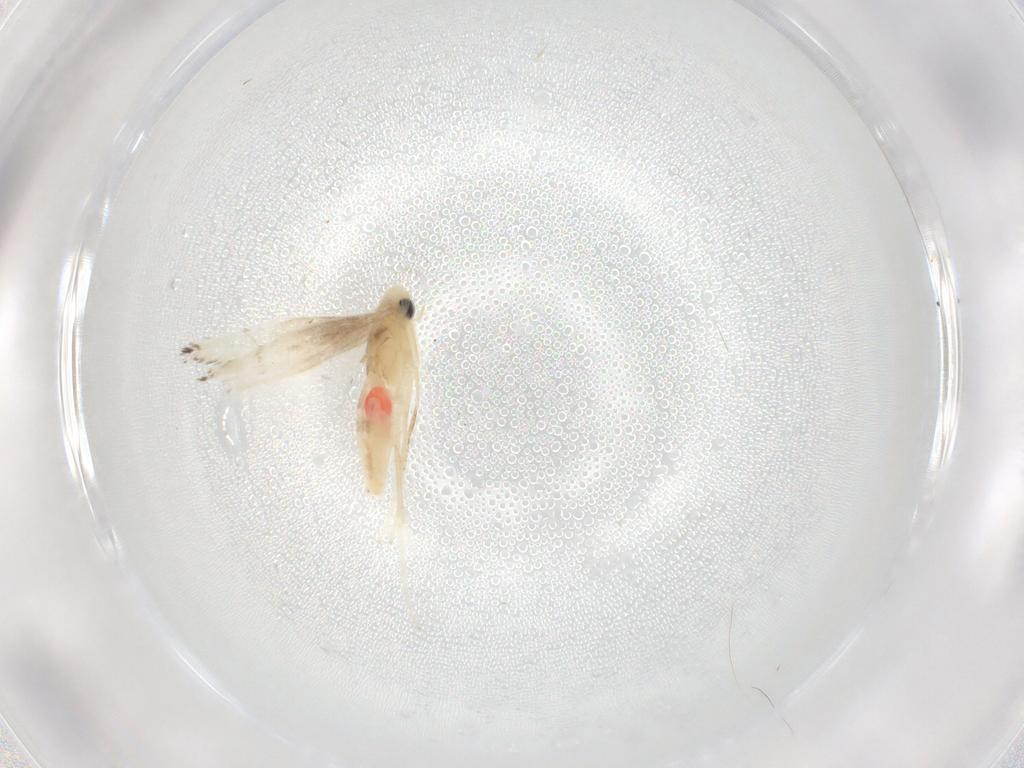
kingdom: Animalia
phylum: Arthropoda
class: Insecta
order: Lepidoptera
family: Gracillariidae
